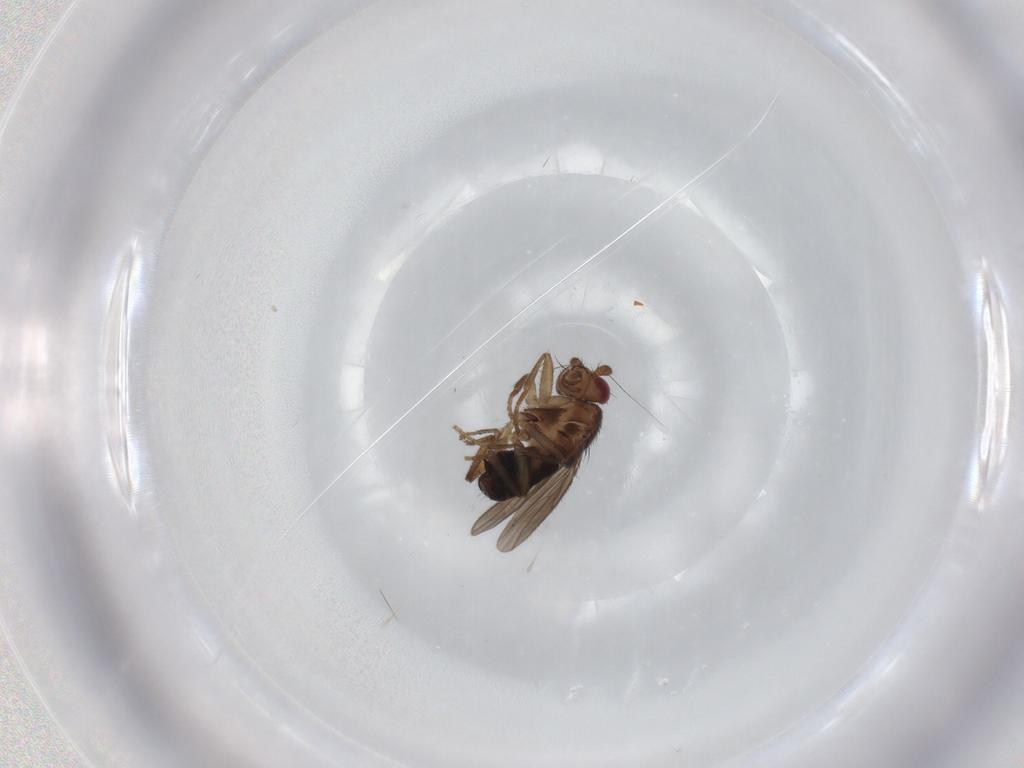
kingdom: Animalia
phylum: Arthropoda
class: Insecta
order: Diptera
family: Sphaeroceridae
